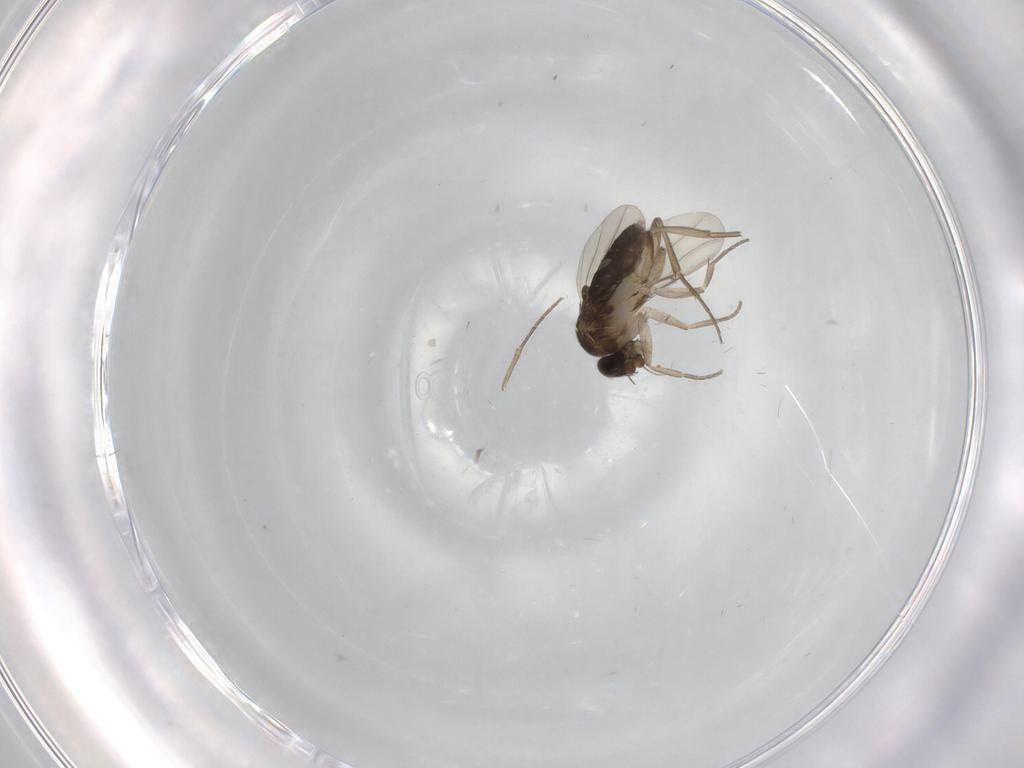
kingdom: Animalia
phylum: Arthropoda
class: Insecta
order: Diptera
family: Phoridae
